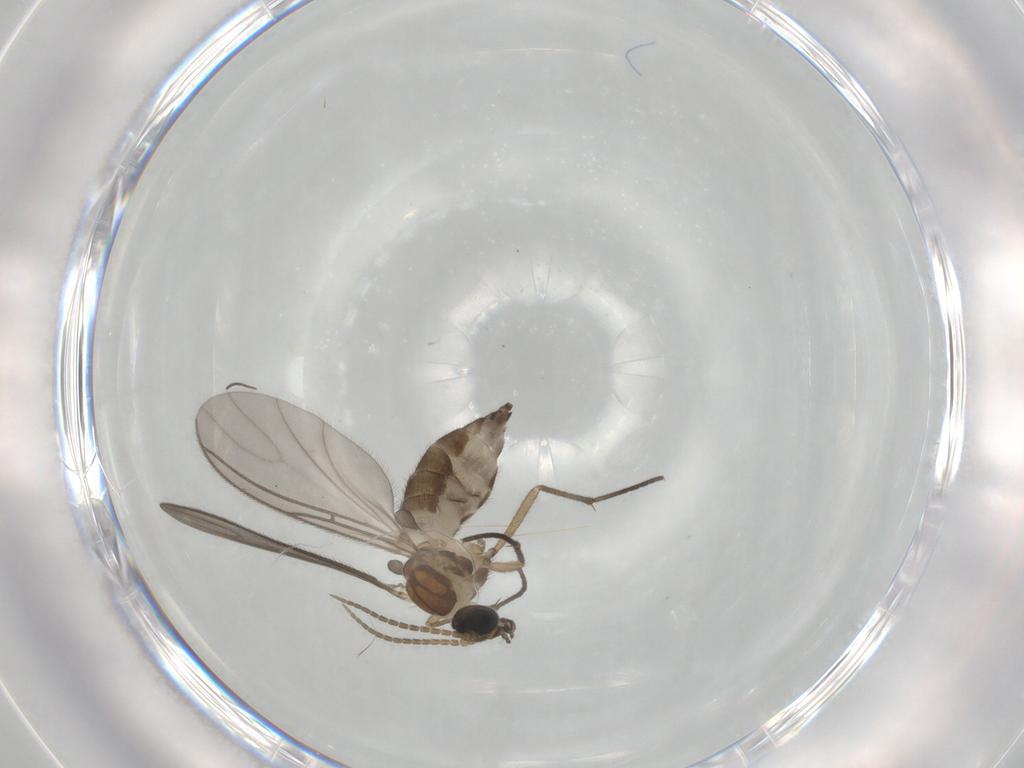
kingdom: Animalia
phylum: Arthropoda
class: Insecta
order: Diptera
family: Sciaridae
